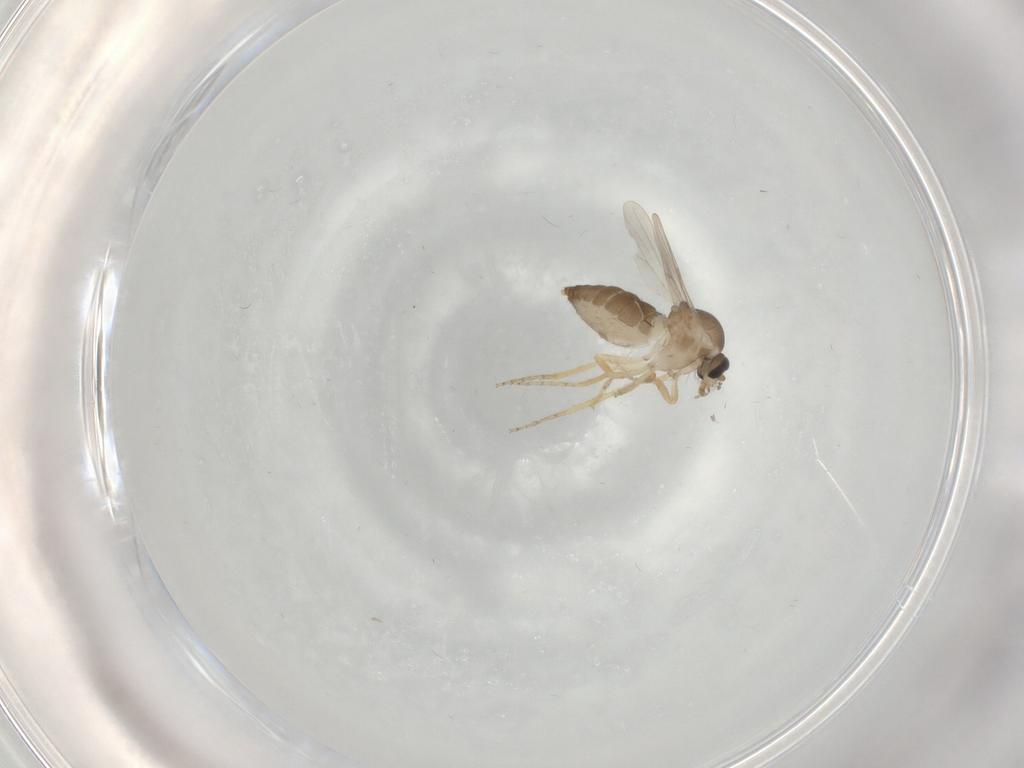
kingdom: Animalia
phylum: Arthropoda
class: Insecta
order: Diptera
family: Ceratopogonidae
